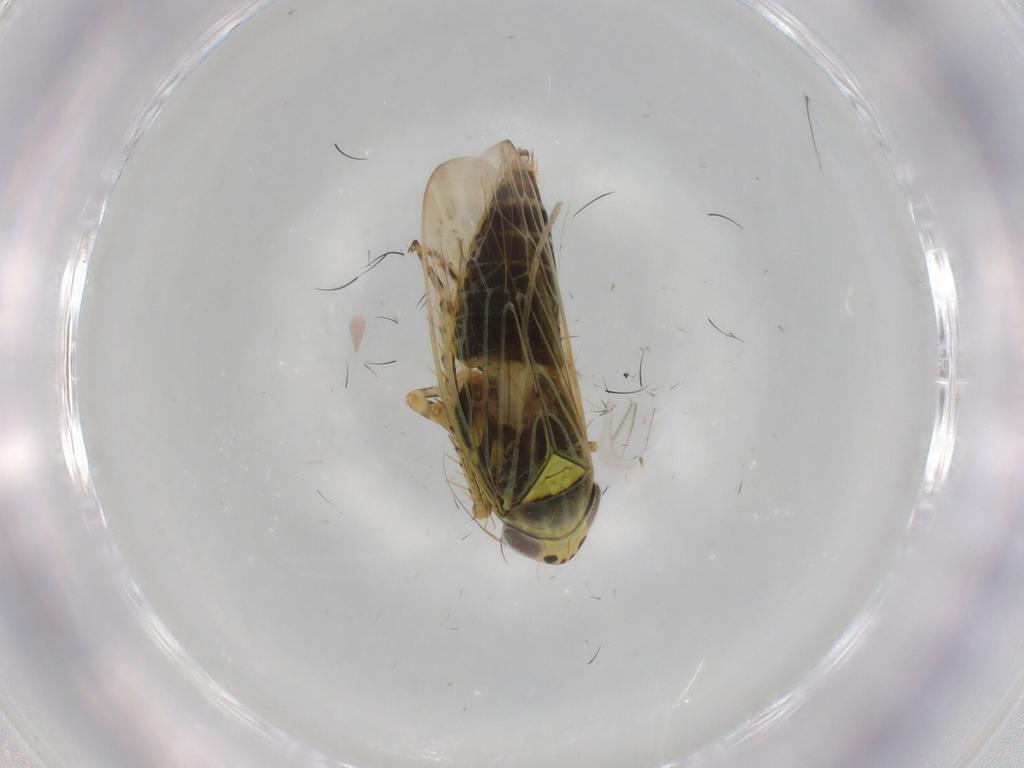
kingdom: Animalia
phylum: Arthropoda
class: Insecta
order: Hemiptera
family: Cicadellidae
